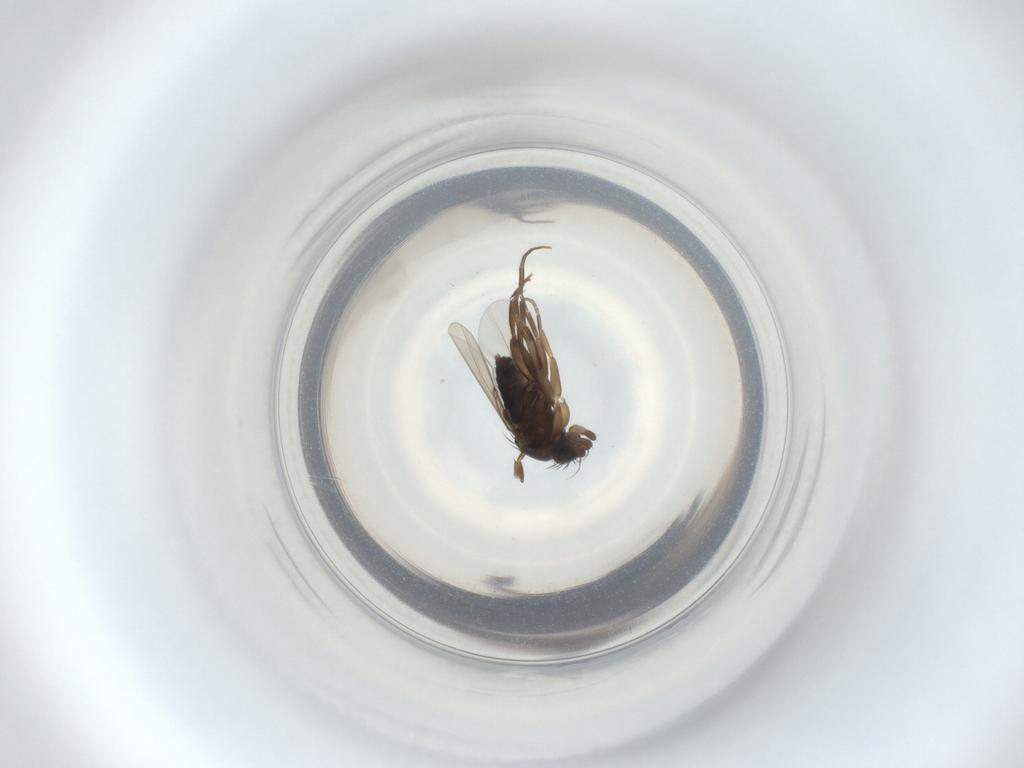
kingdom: Animalia
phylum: Arthropoda
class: Insecta
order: Diptera
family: Phoridae
